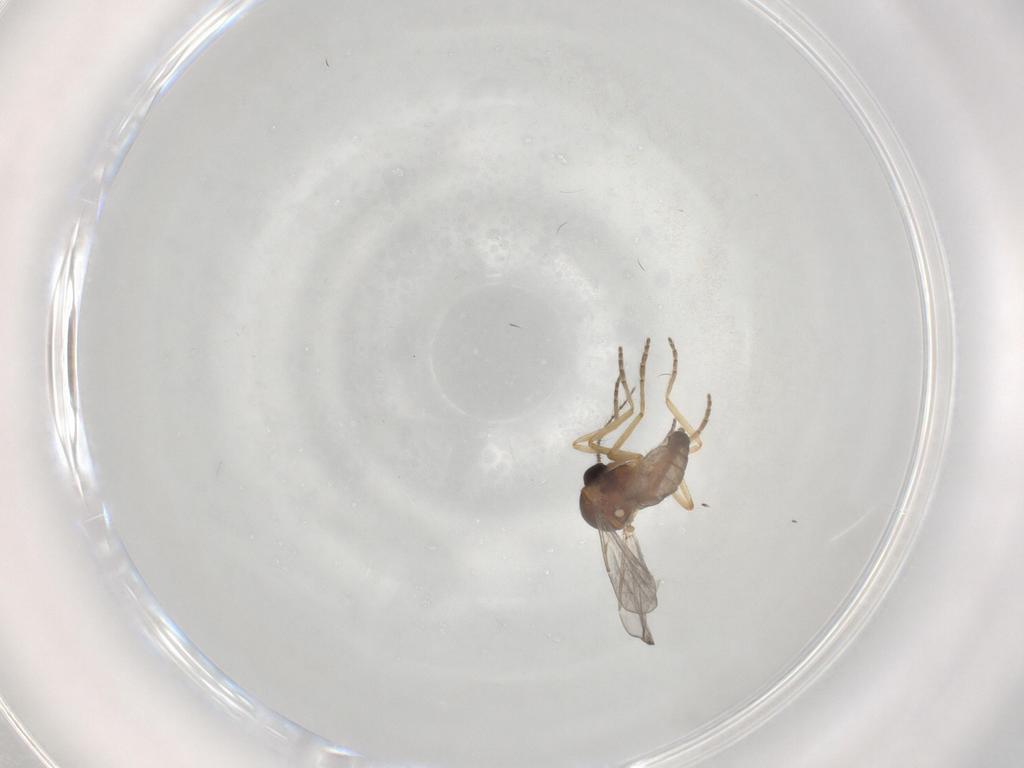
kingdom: Animalia
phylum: Arthropoda
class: Insecta
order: Diptera
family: Ceratopogonidae
